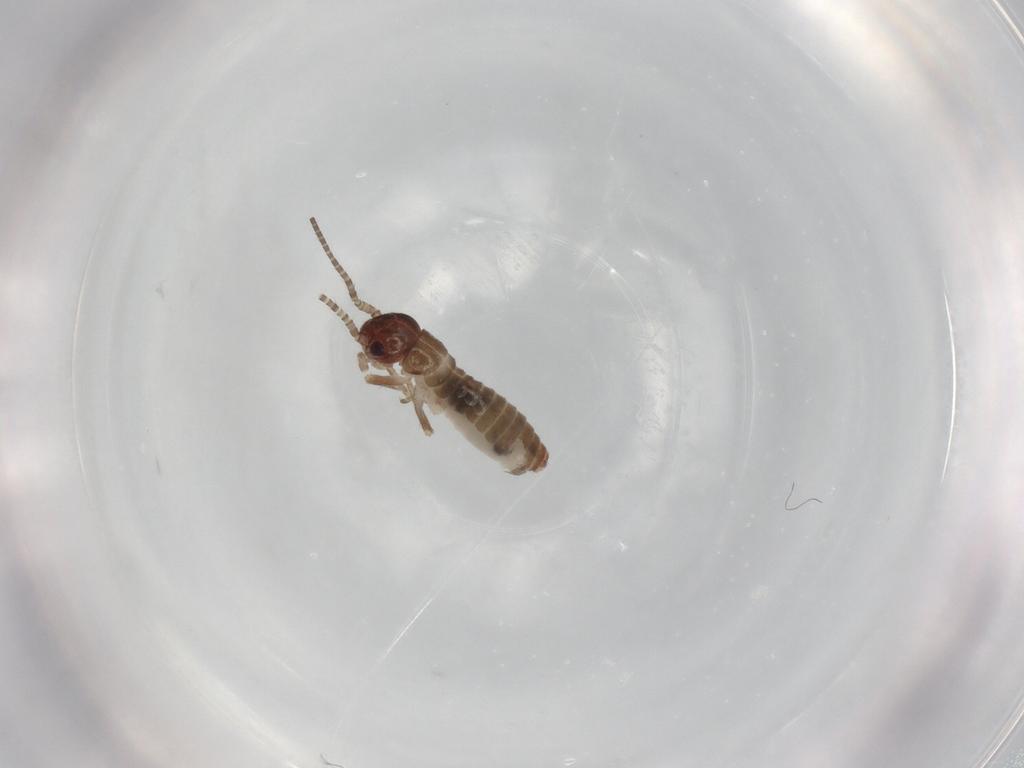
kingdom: Animalia
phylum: Arthropoda
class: Insecta
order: Orthoptera
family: Mogoplistidae
